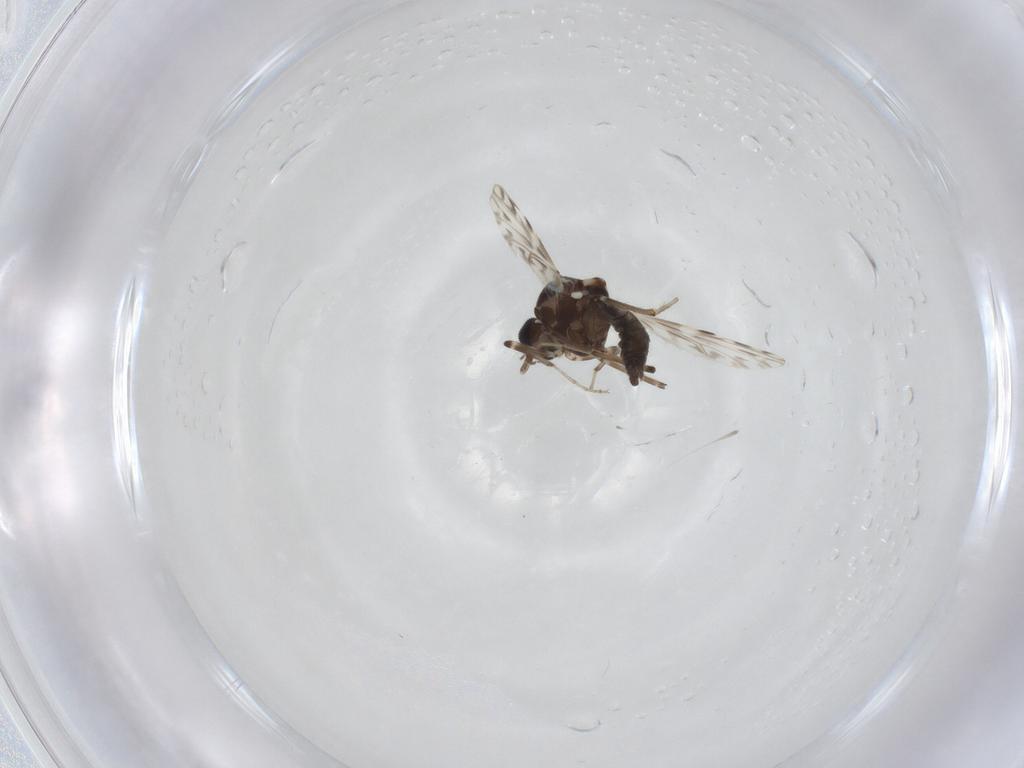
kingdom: Animalia
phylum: Arthropoda
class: Insecta
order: Diptera
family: Ceratopogonidae
